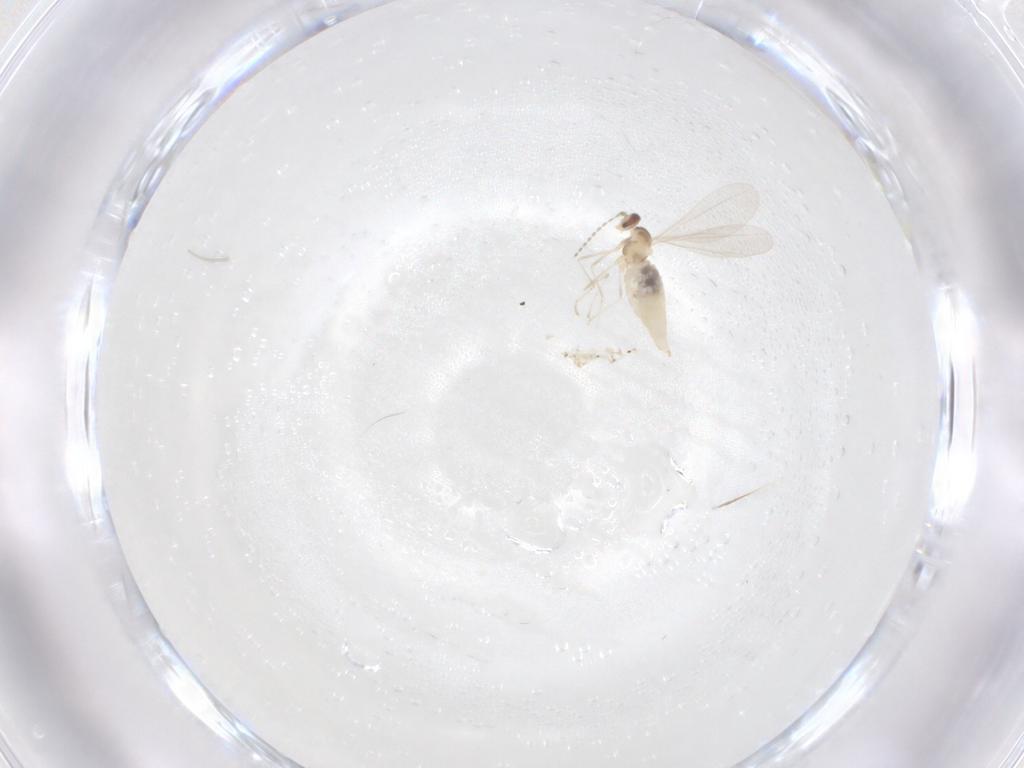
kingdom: Animalia
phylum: Arthropoda
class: Insecta
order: Diptera
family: Cecidomyiidae
